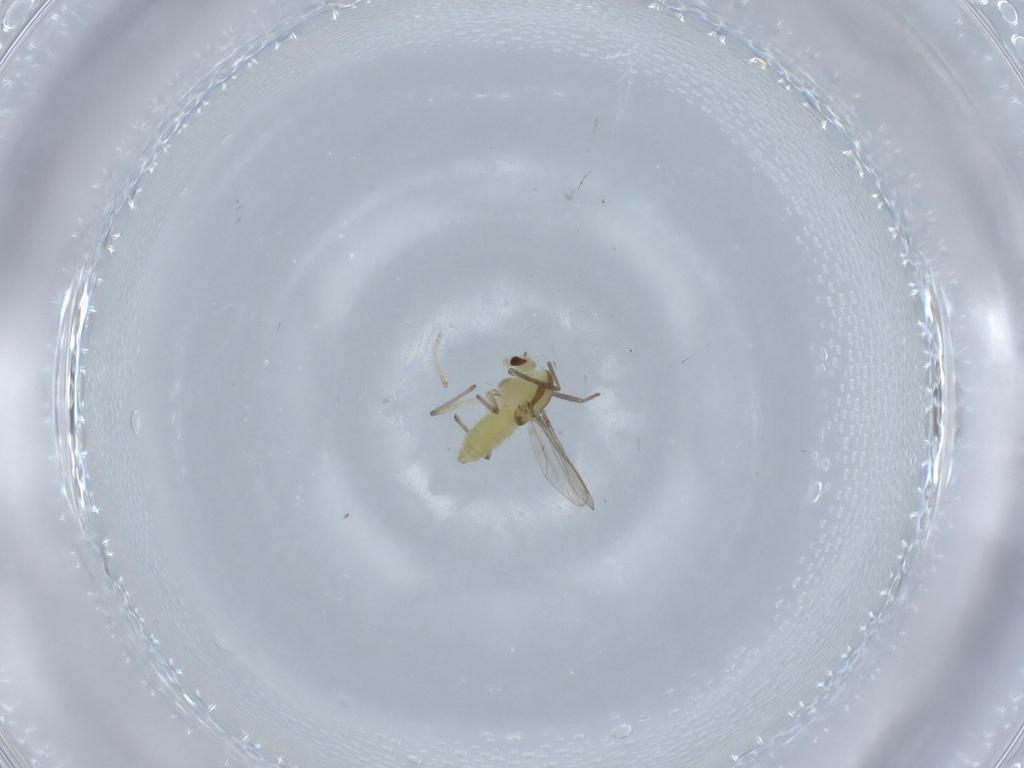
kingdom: Animalia
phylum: Arthropoda
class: Insecta
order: Diptera
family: Chironomidae
